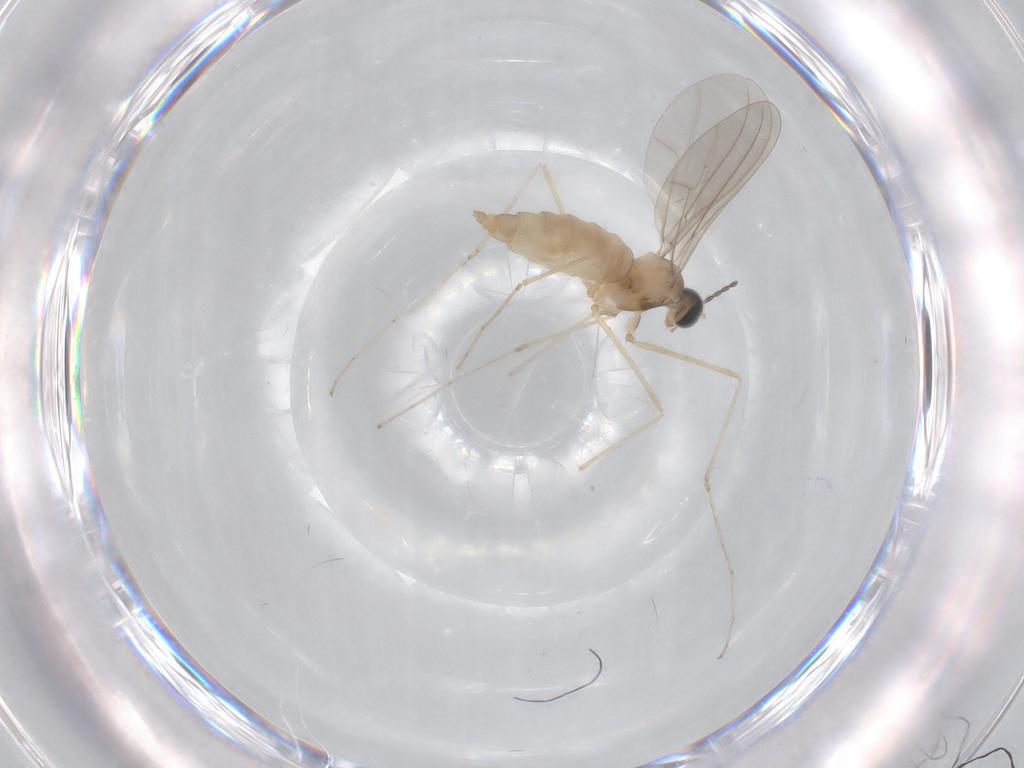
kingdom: Animalia
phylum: Arthropoda
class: Insecta
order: Diptera
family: Cecidomyiidae
